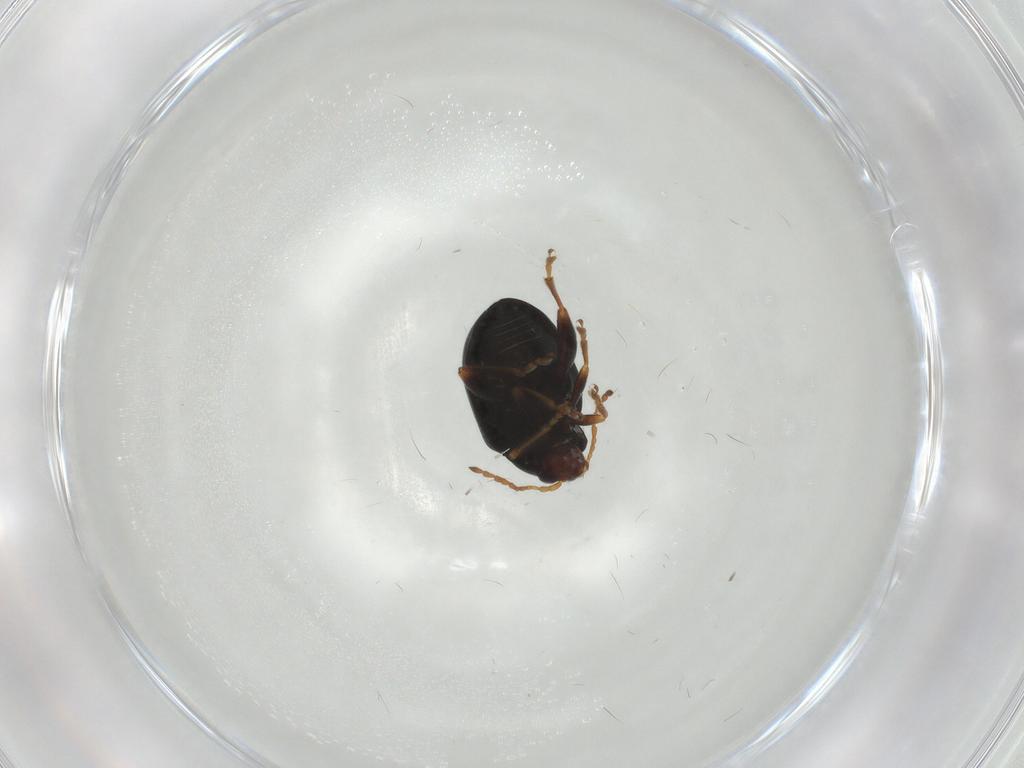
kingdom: Animalia
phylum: Arthropoda
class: Insecta
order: Coleoptera
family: Chrysomelidae
